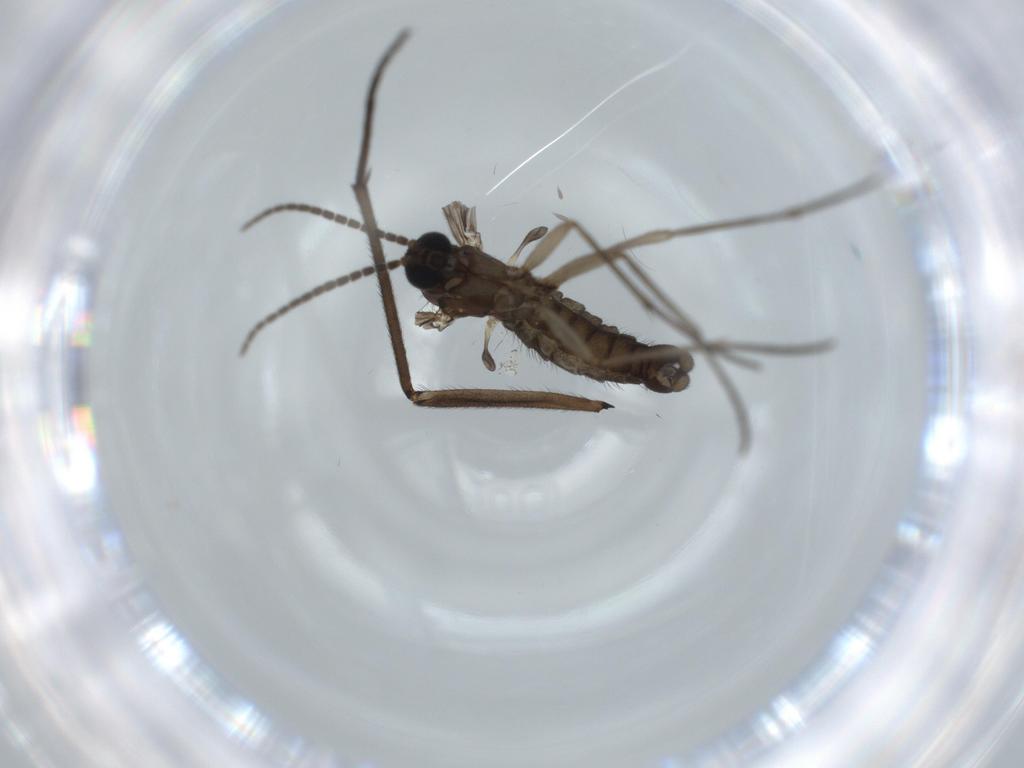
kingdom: Animalia
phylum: Arthropoda
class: Insecta
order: Diptera
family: Sciaridae
